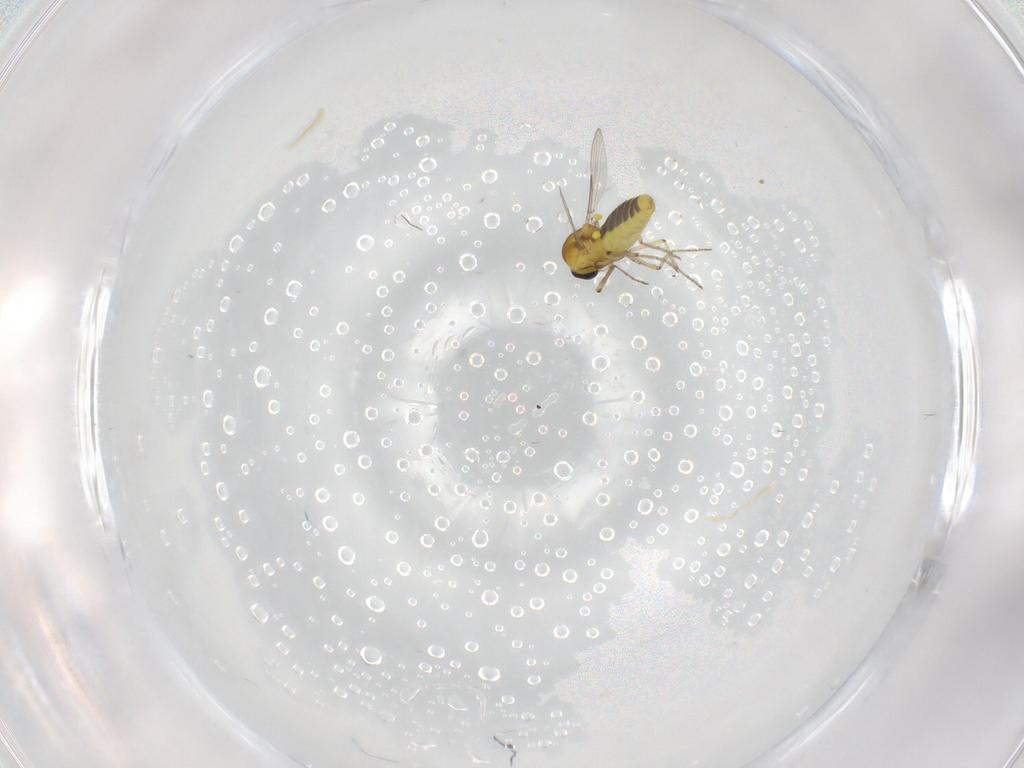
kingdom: Animalia
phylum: Arthropoda
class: Insecta
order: Diptera
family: Ceratopogonidae
